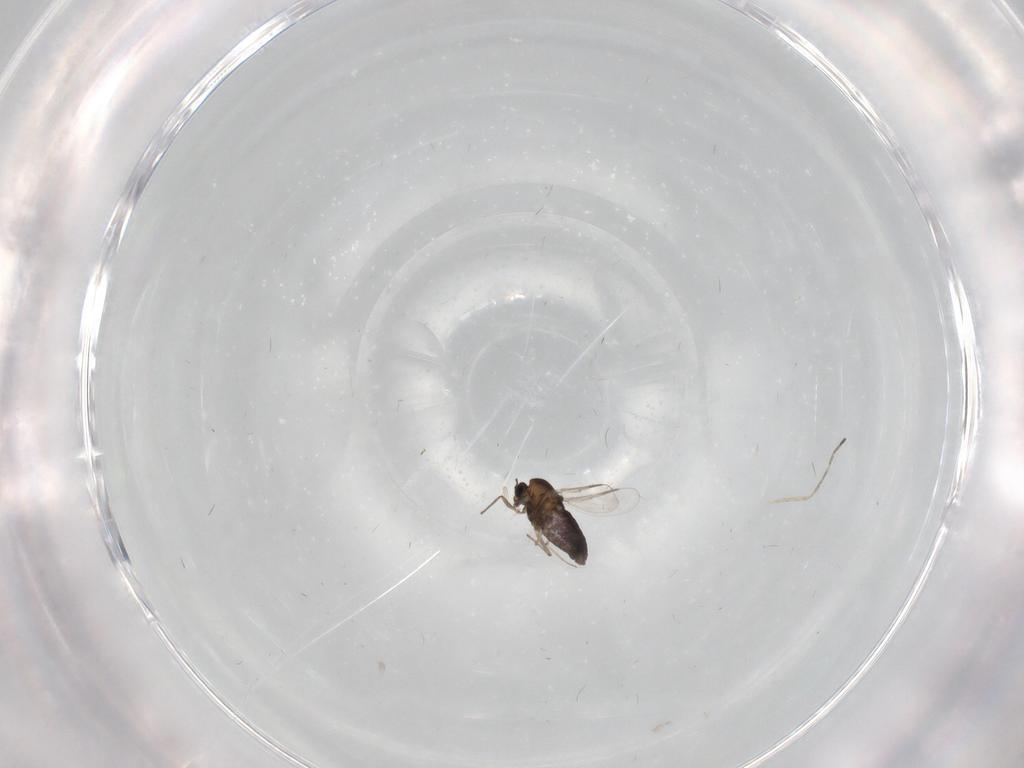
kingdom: Animalia
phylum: Arthropoda
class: Insecta
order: Diptera
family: Chironomidae
